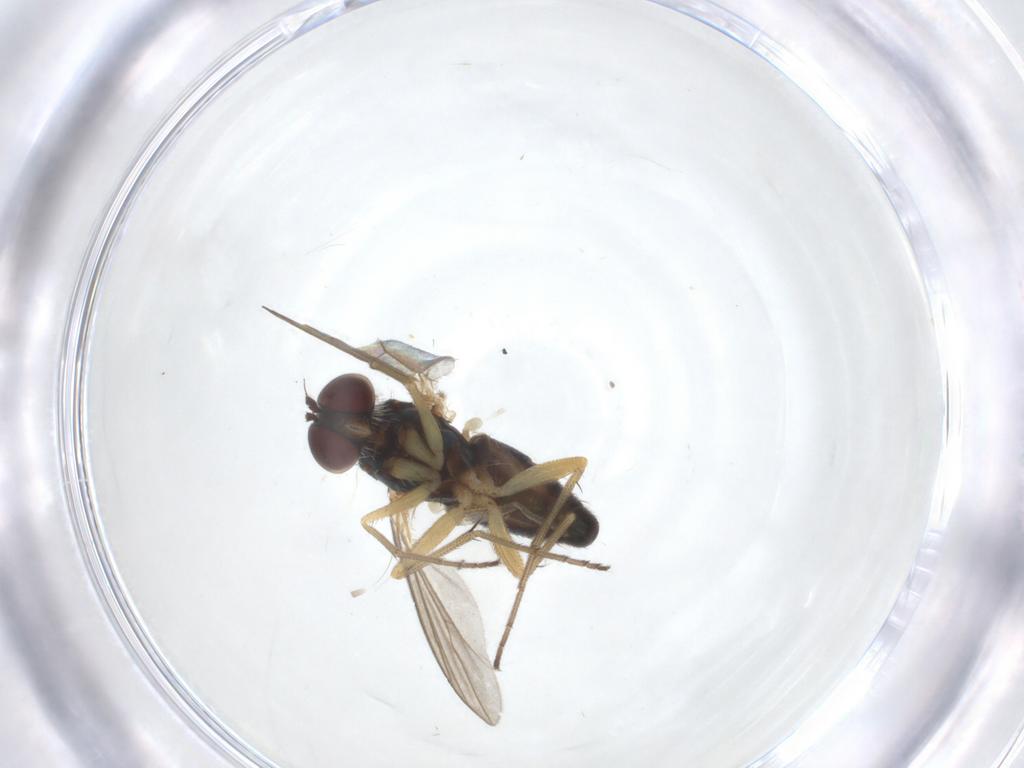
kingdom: Animalia
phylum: Arthropoda
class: Insecta
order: Diptera
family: Dolichopodidae
